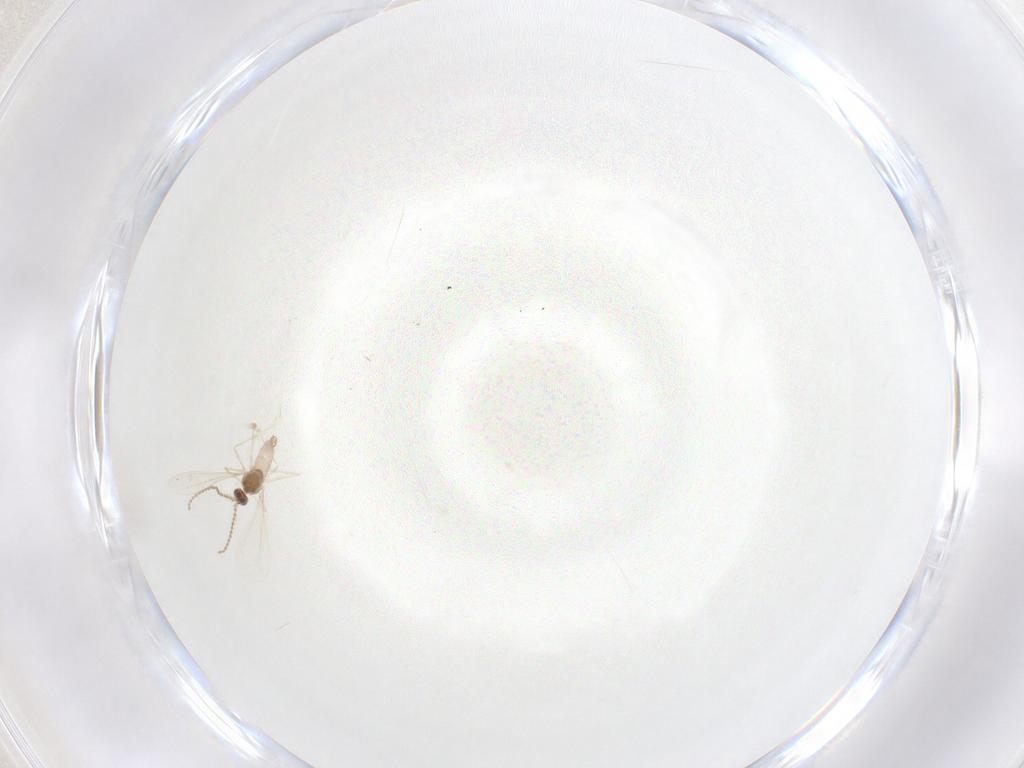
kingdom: Animalia
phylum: Arthropoda
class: Insecta
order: Diptera
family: Cecidomyiidae
